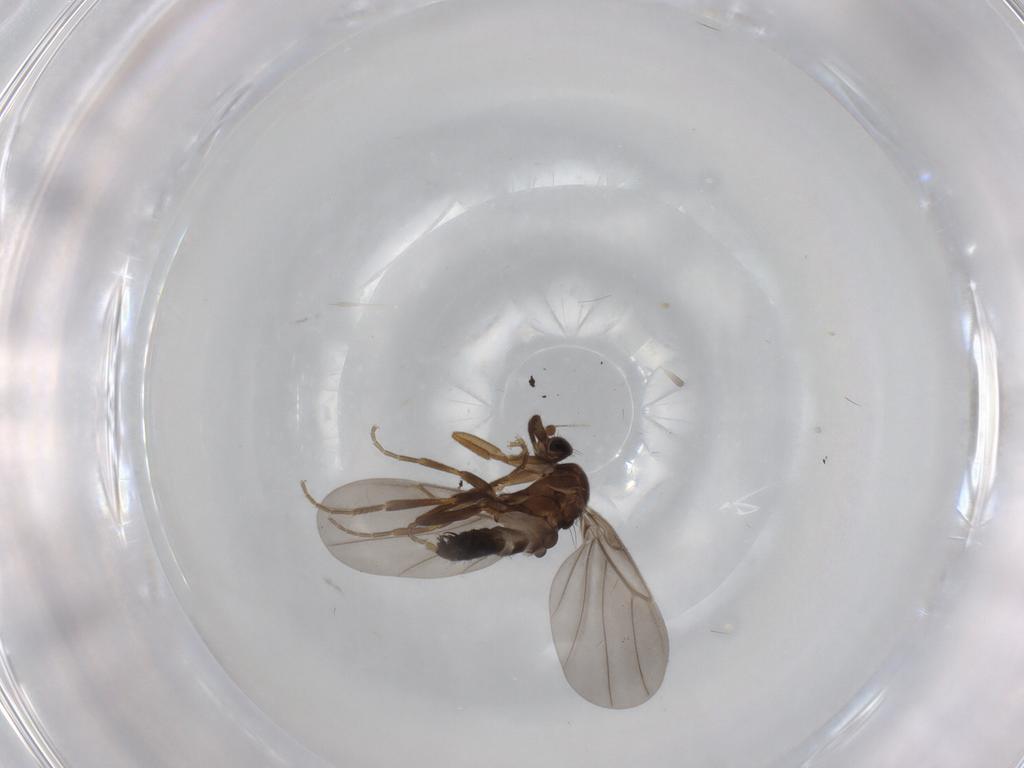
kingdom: Animalia
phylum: Arthropoda
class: Insecta
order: Diptera
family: Phoridae
